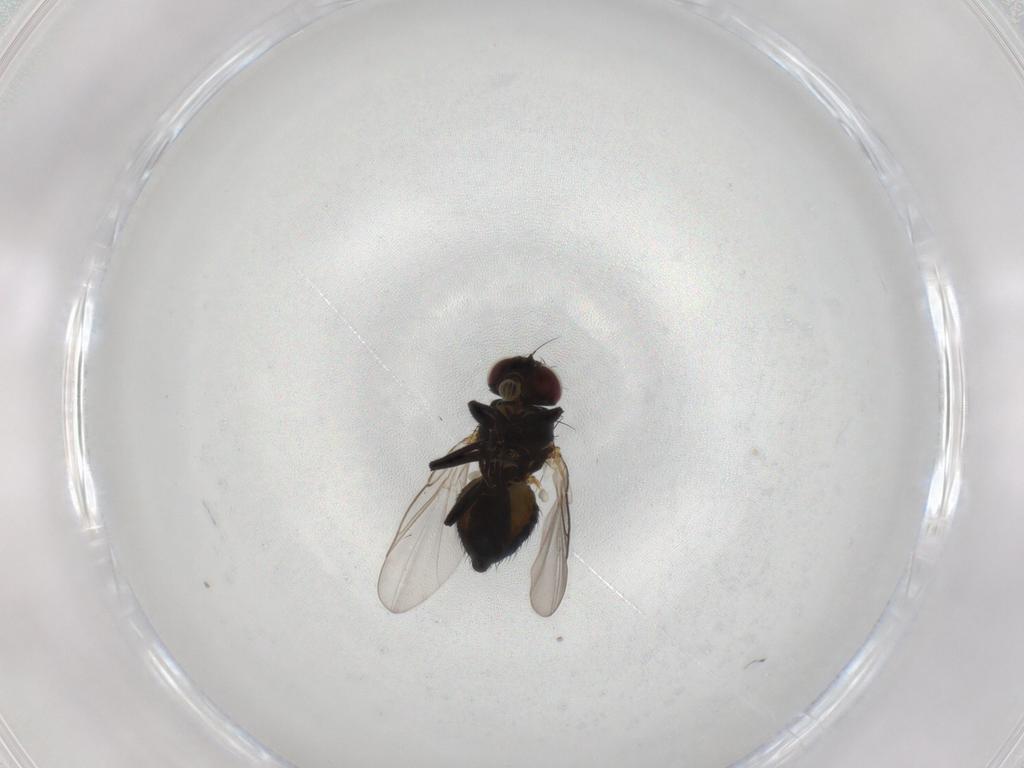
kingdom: Animalia
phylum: Arthropoda
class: Insecta
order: Diptera
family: Agromyzidae
